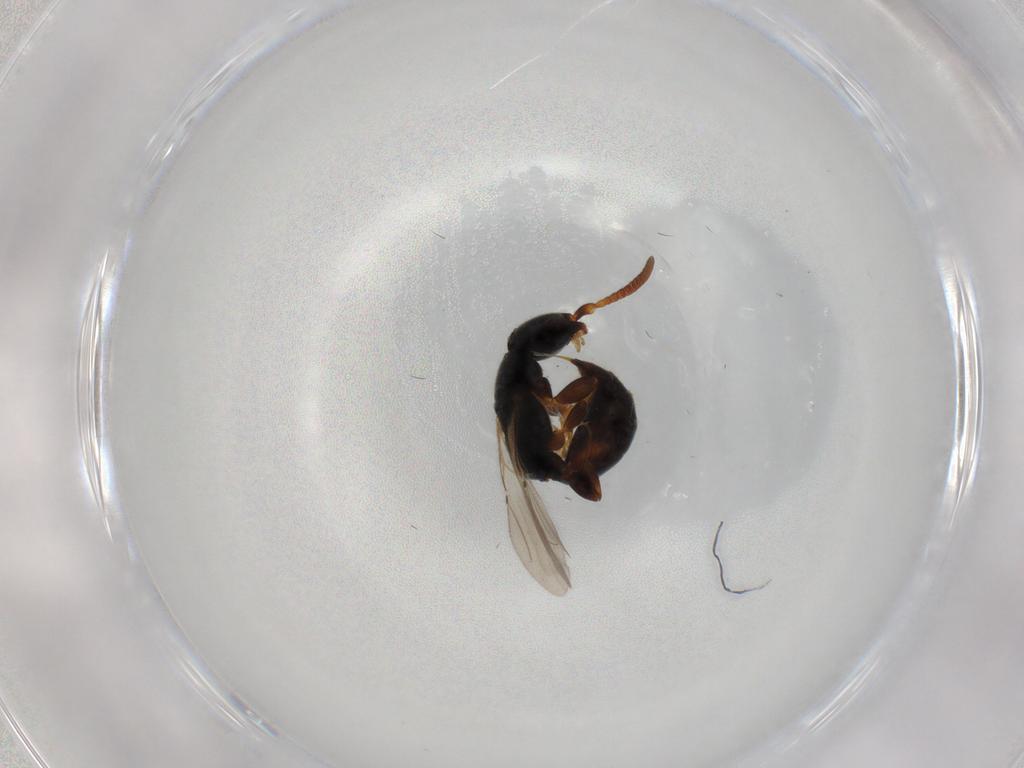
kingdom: Animalia
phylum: Arthropoda
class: Insecta
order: Hymenoptera
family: Bethylidae
